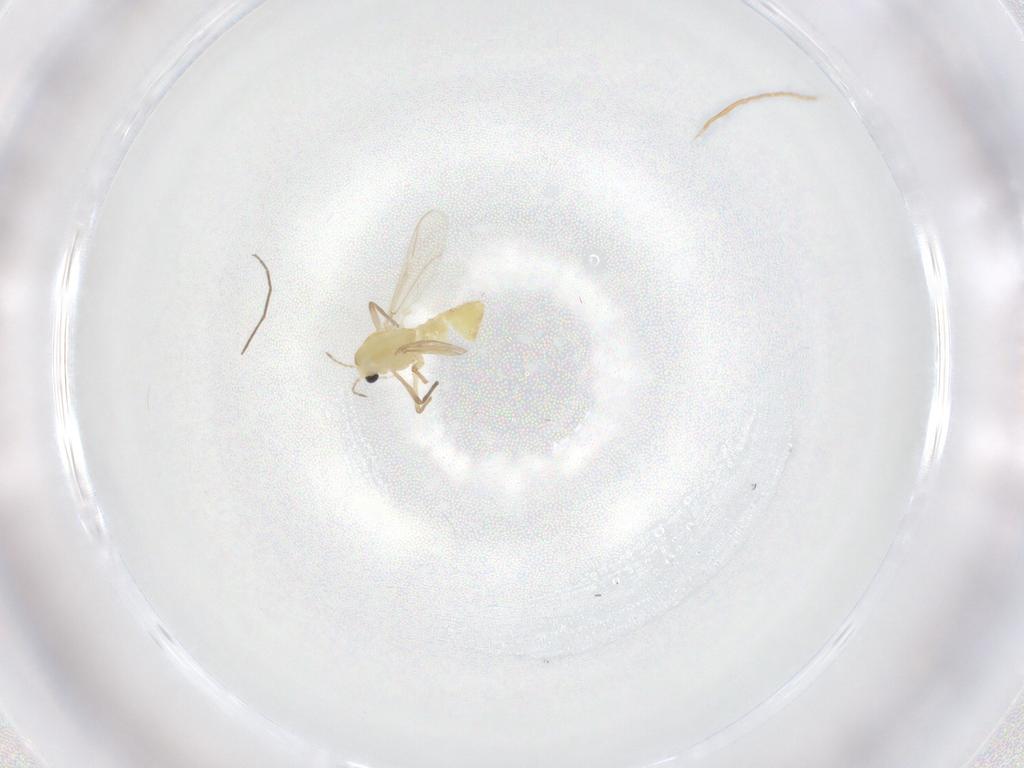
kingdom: Animalia
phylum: Arthropoda
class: Insecta
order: Diptera
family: Chironomidae
